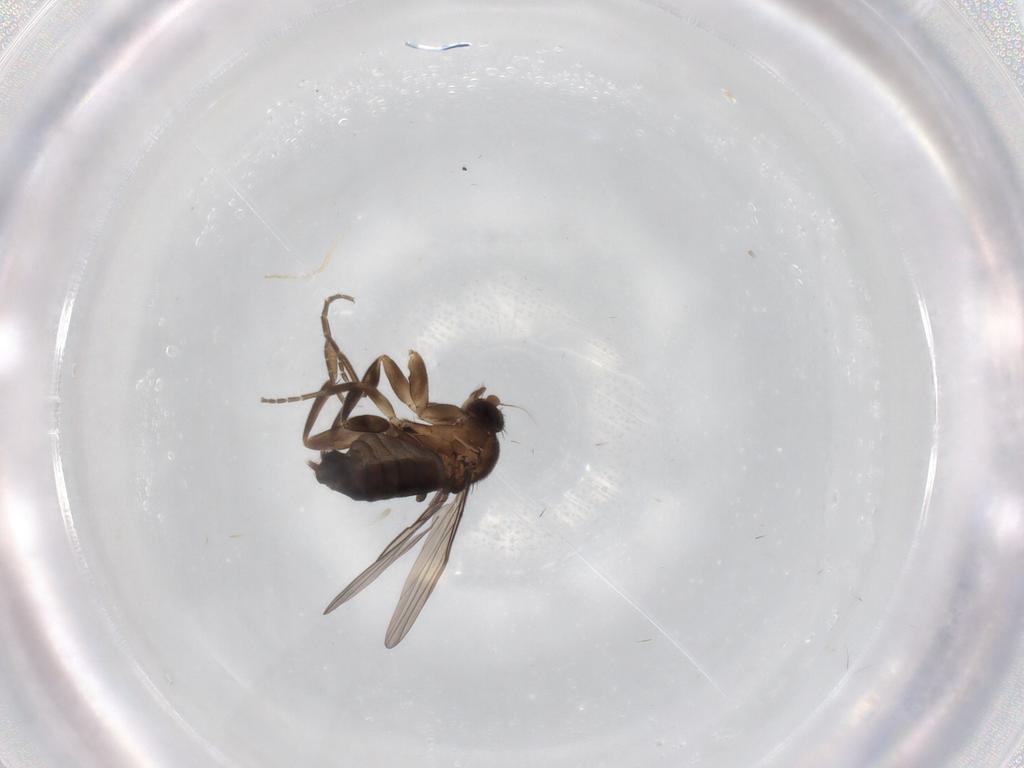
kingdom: Animalia
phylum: Arthropoda
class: Insecta
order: Diptera
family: Phoridae
